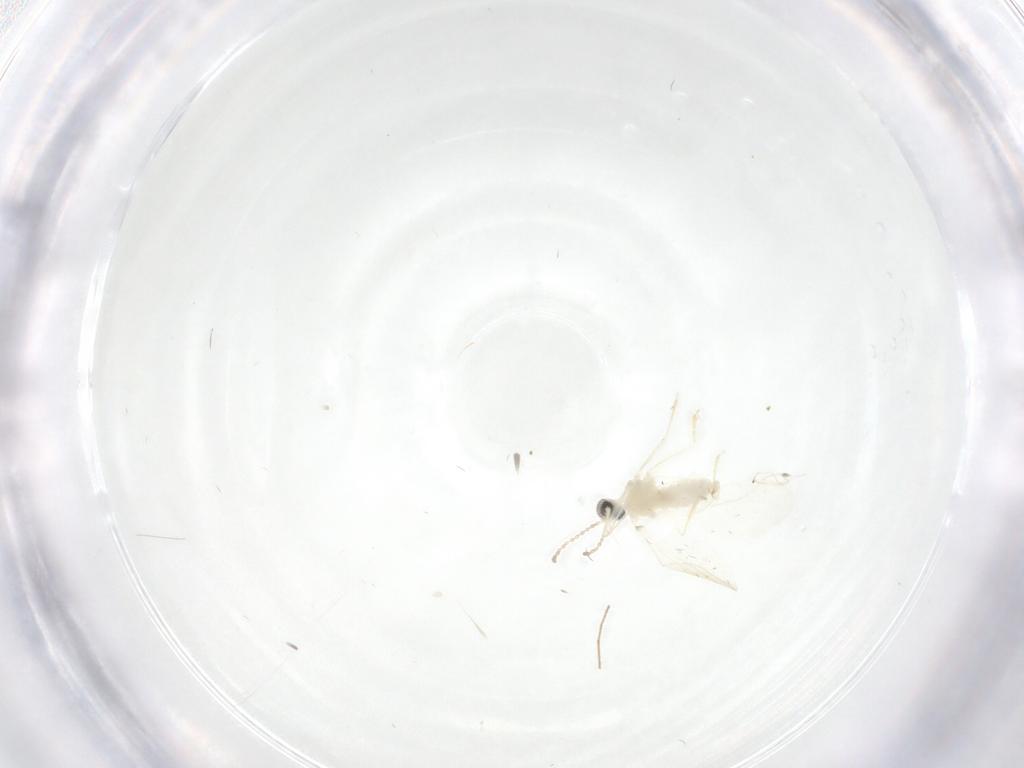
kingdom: Animalia
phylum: Arthropoda
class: Insecta
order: Diptera
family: Cecidomyiidae
